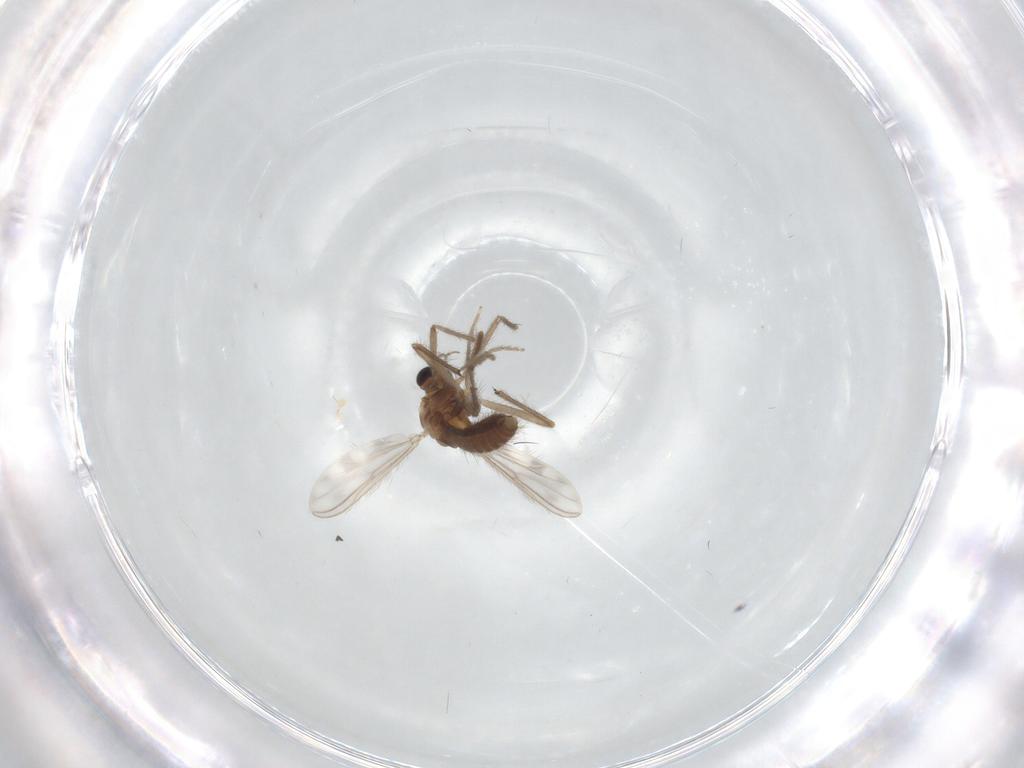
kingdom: Animalia
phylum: Arthropoda
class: Insecta
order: Diptera
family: Chironomidae
